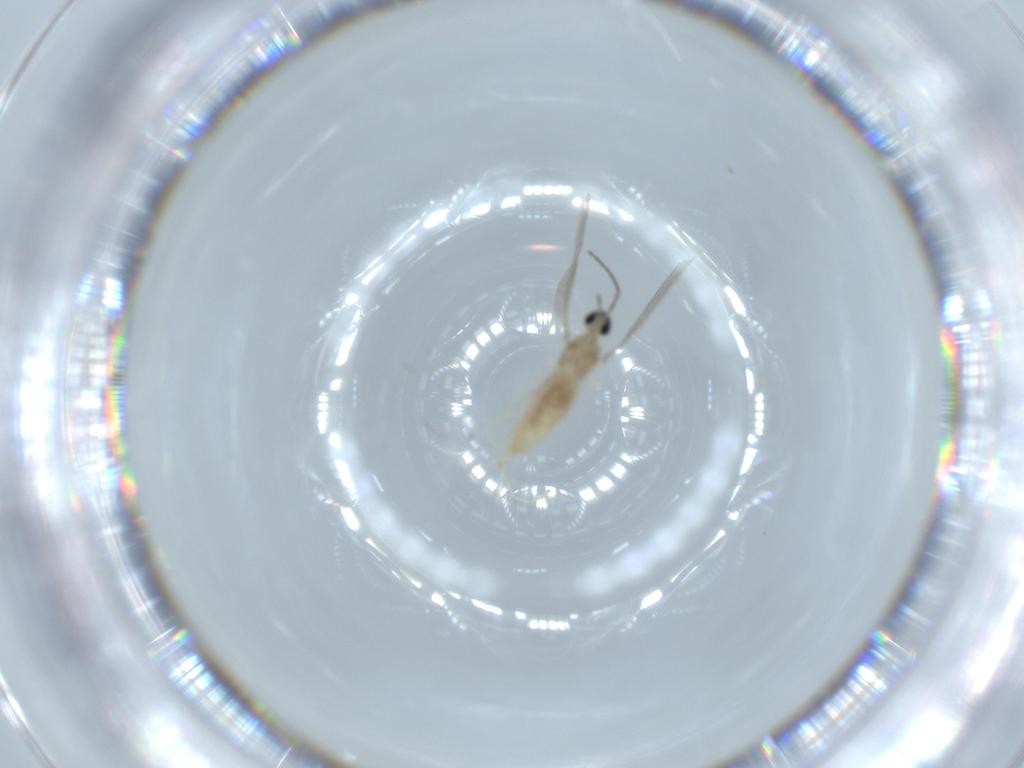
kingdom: Animalia
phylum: Arthropoda
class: Insecta
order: Diptera
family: Cecidomyiidae
